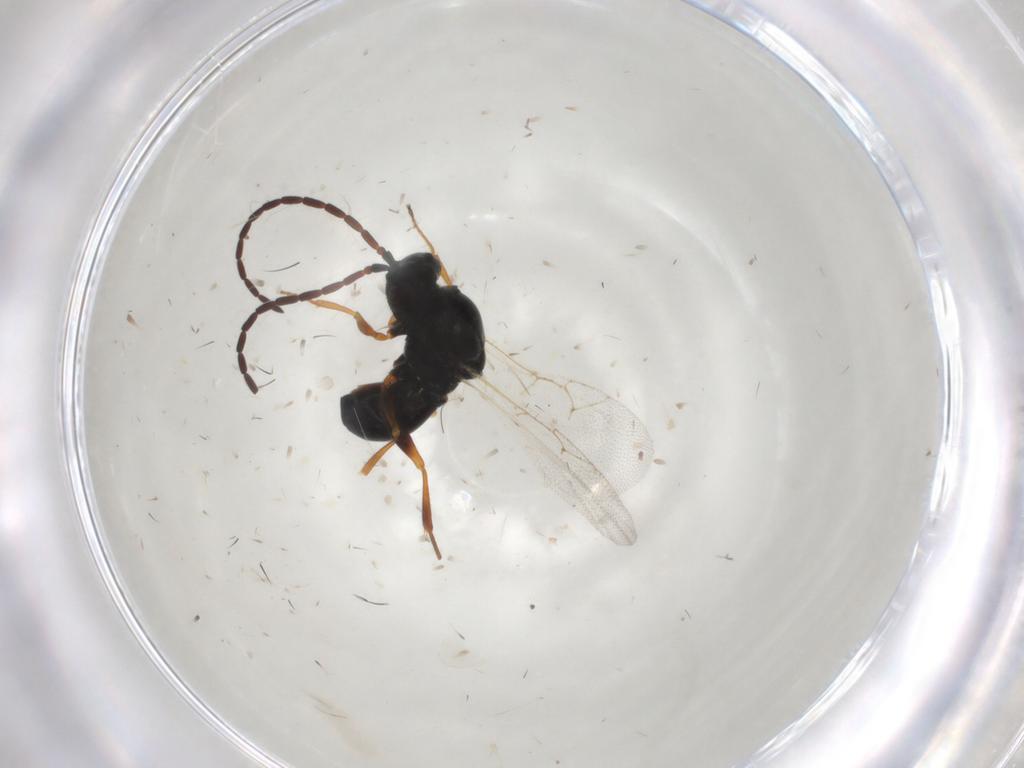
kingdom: Animalia
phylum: Arthropoda
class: Insecta
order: Hymenoptera
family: Figitidae
